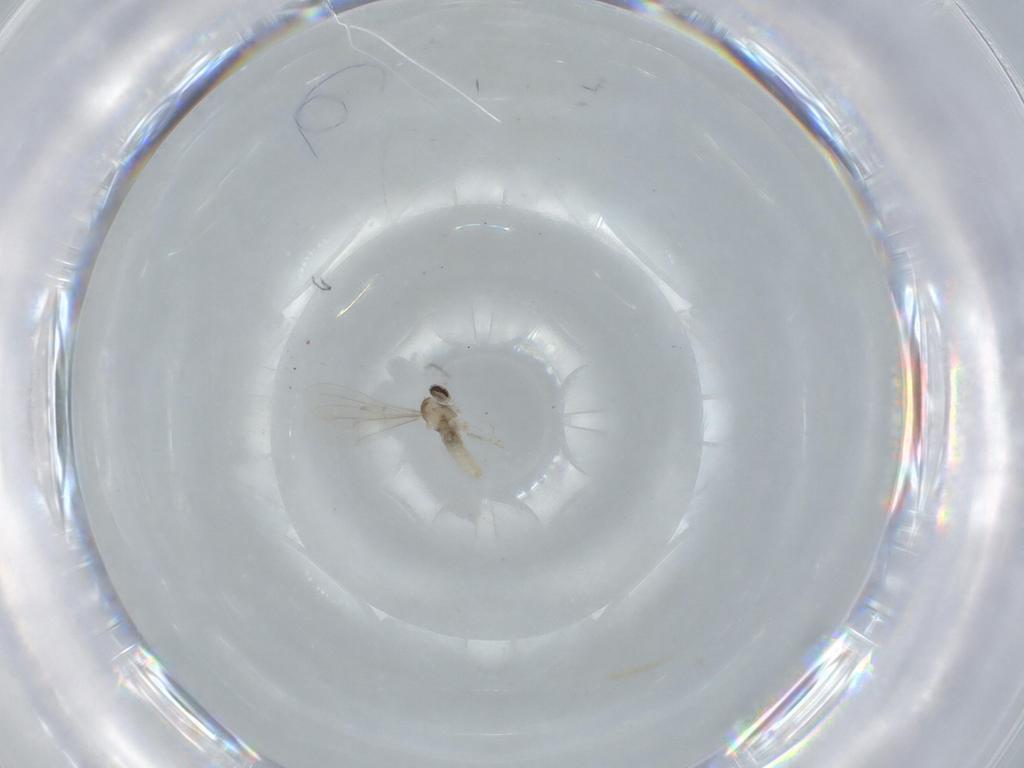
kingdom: Animalia
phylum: Arthropoda
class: Insecta
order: Diptera
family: Cecidomyiidae
